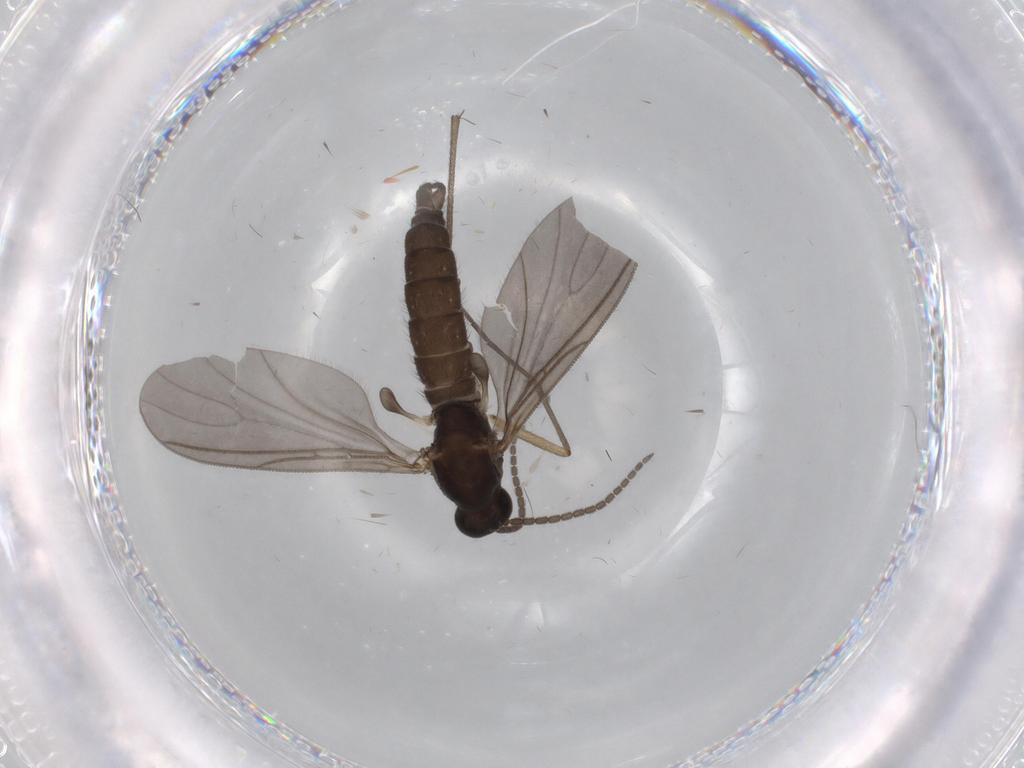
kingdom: Animalia
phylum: Arthropoda
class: Insecta
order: Diptera
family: Sciaridae
